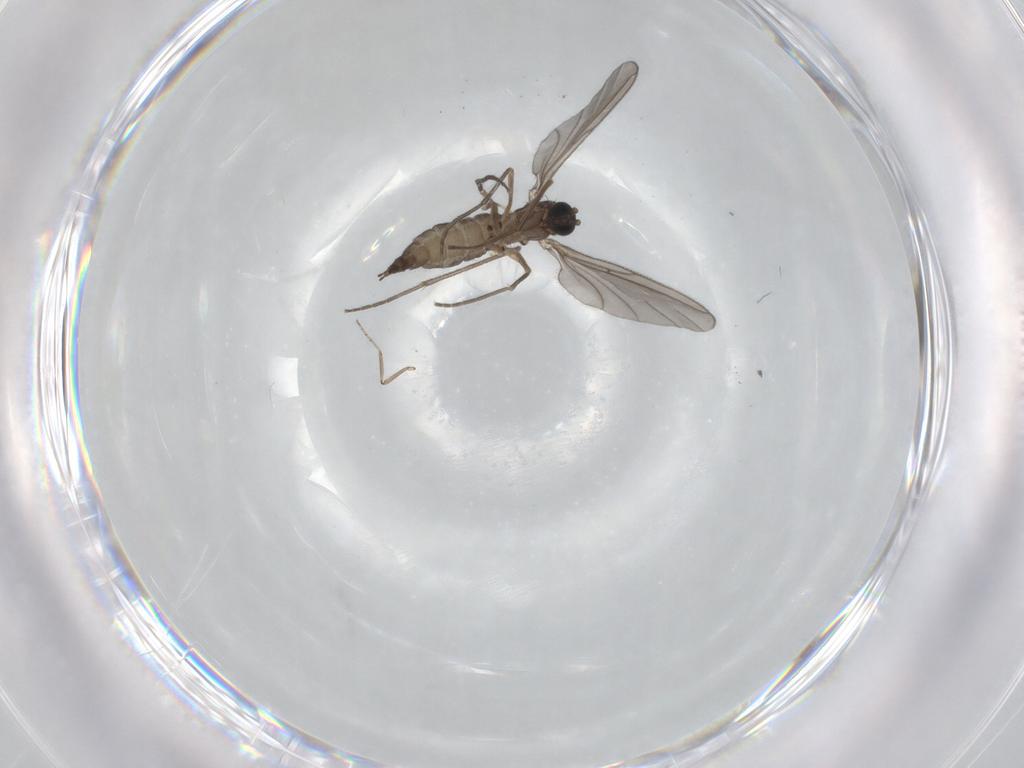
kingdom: Animalia
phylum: Arthropoda
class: Insecta
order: Diptera
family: Sciaridae
